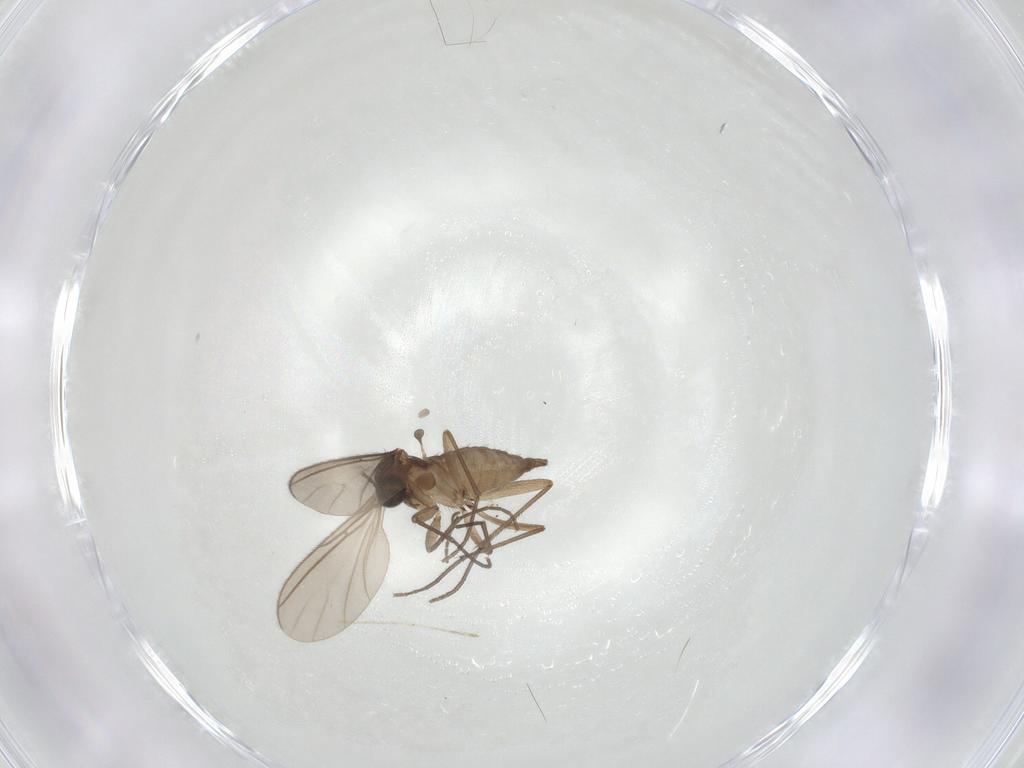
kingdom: Animalia
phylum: Arthropoda
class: Insecta
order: Diptera
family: Sciaridae
